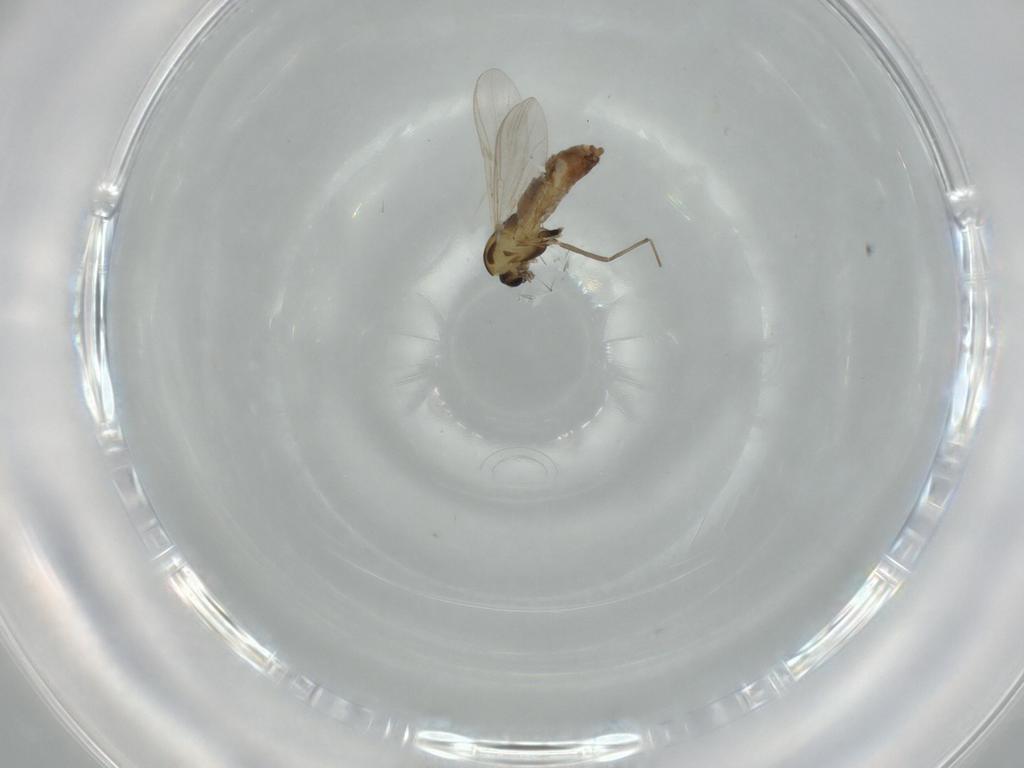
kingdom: Animalia
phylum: Arthropoda
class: Insecta
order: Diptera
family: Chironomidae
